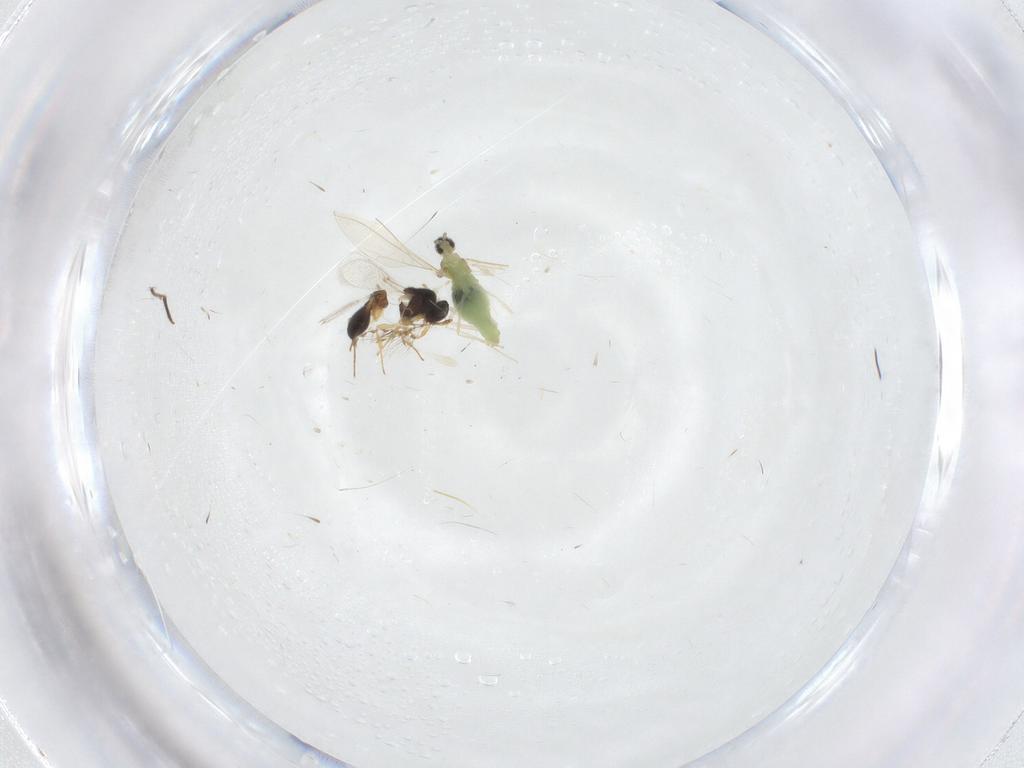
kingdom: Animalia
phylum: Arthropoda
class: Insecta
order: Hymenoptera
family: Platygastridae
